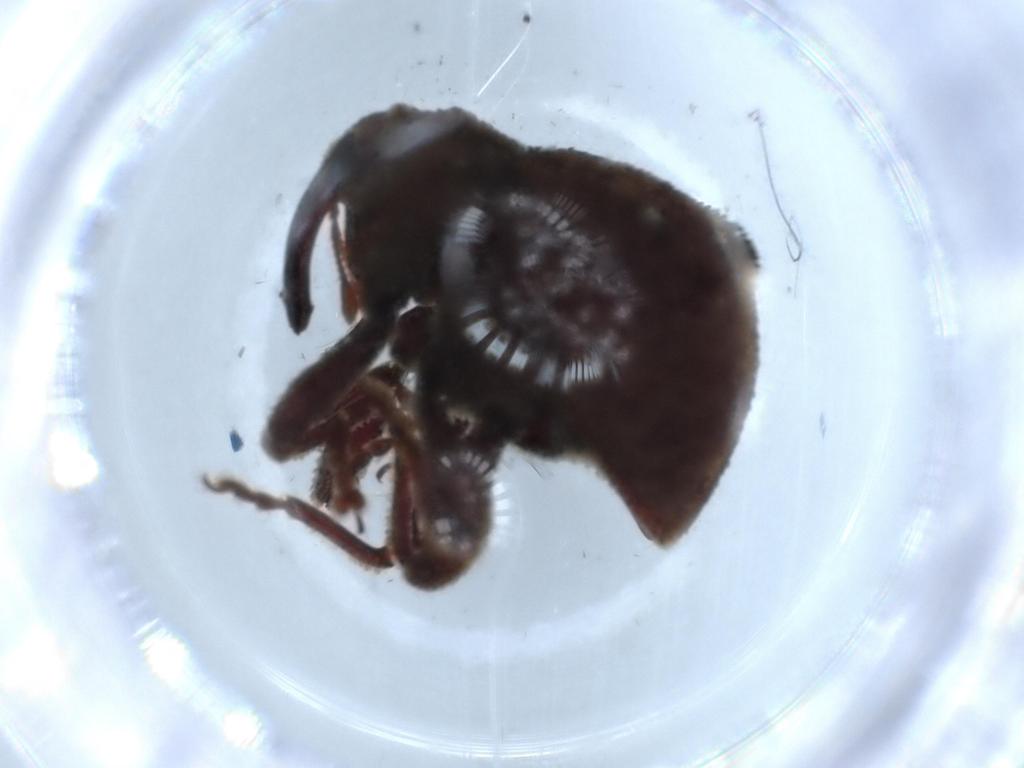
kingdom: Animalia
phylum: Arthropoda
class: Insecta
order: Coleoptera
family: Curculionidae
